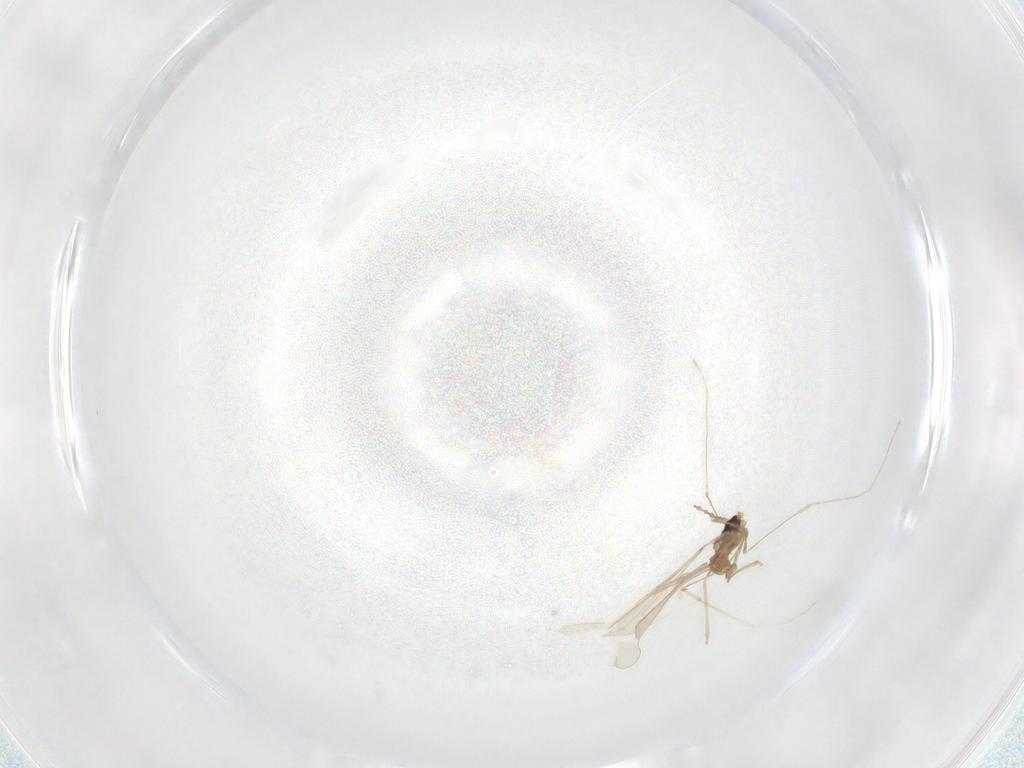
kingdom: Animalia
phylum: Arthropoda
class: Insecta
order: Diptera
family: Cecidomyiidae
